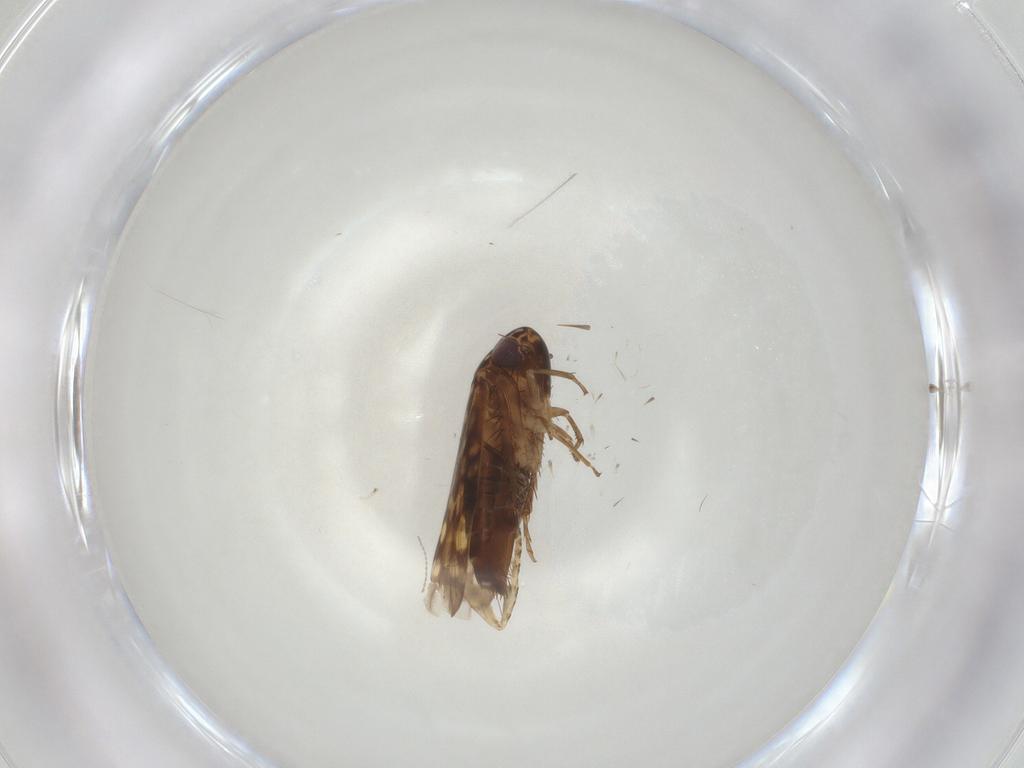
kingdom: Animalia
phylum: Arthropoda
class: Insecta
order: Hemiptera
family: Cicadellidae
